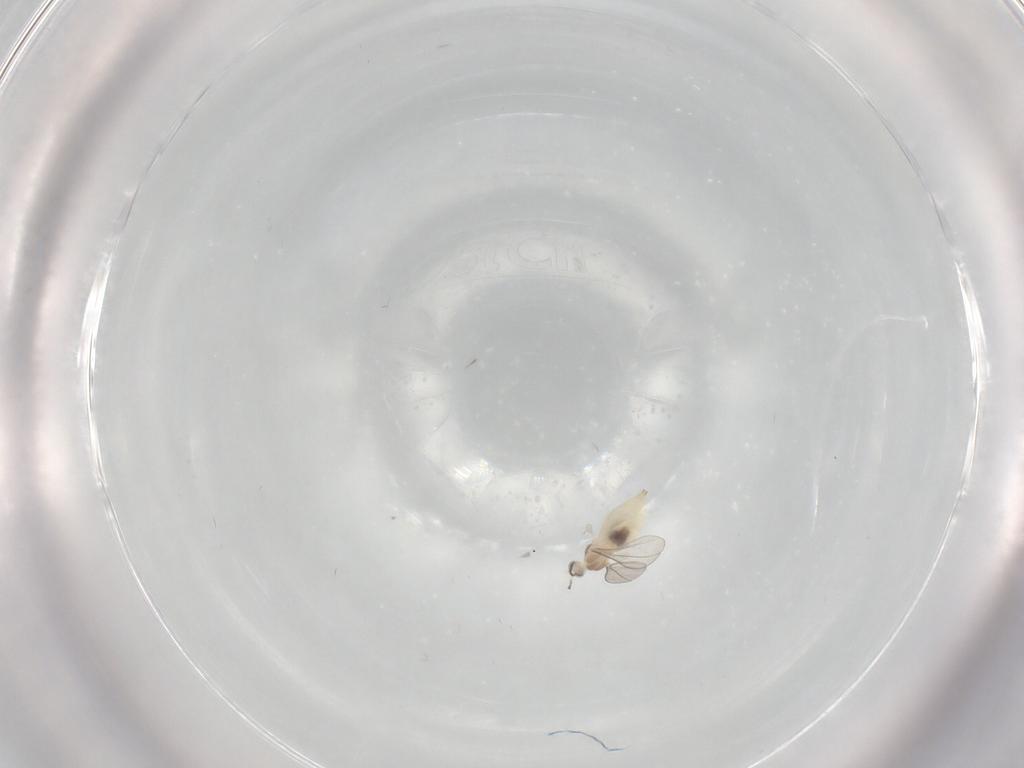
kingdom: Animalia
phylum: Arthropoda
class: Insecta
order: Diptera
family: Cecidomyiidae
